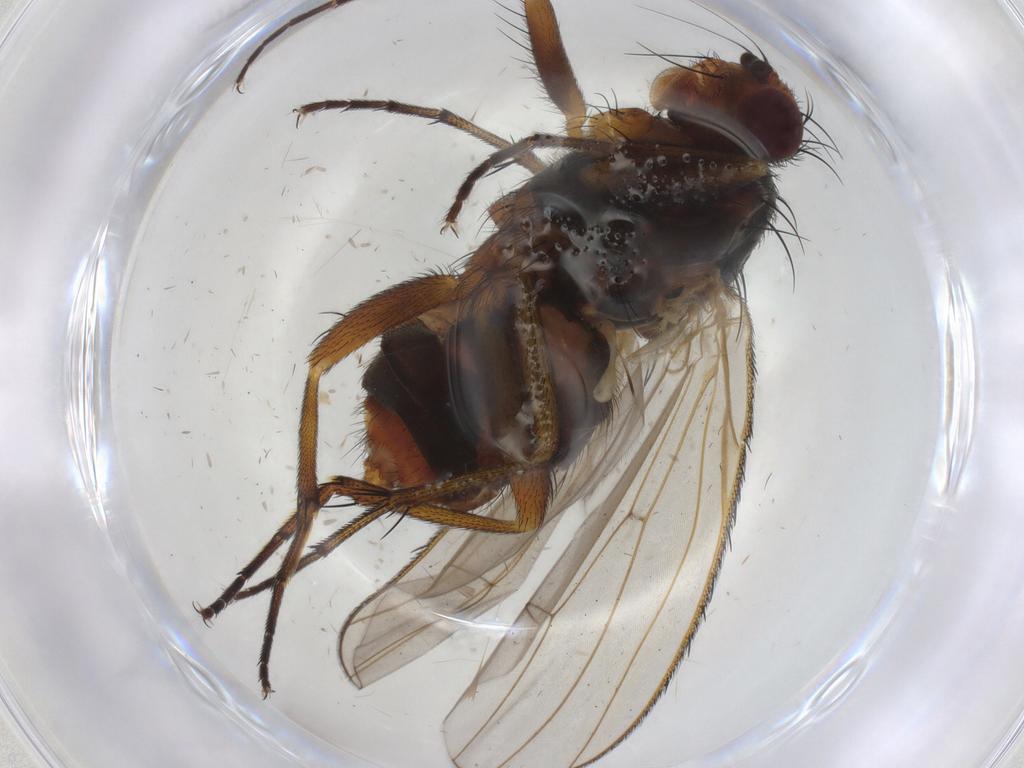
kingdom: Animalia
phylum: Arthropoda
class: Insecta
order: Diptera
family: Heleomyzidae
